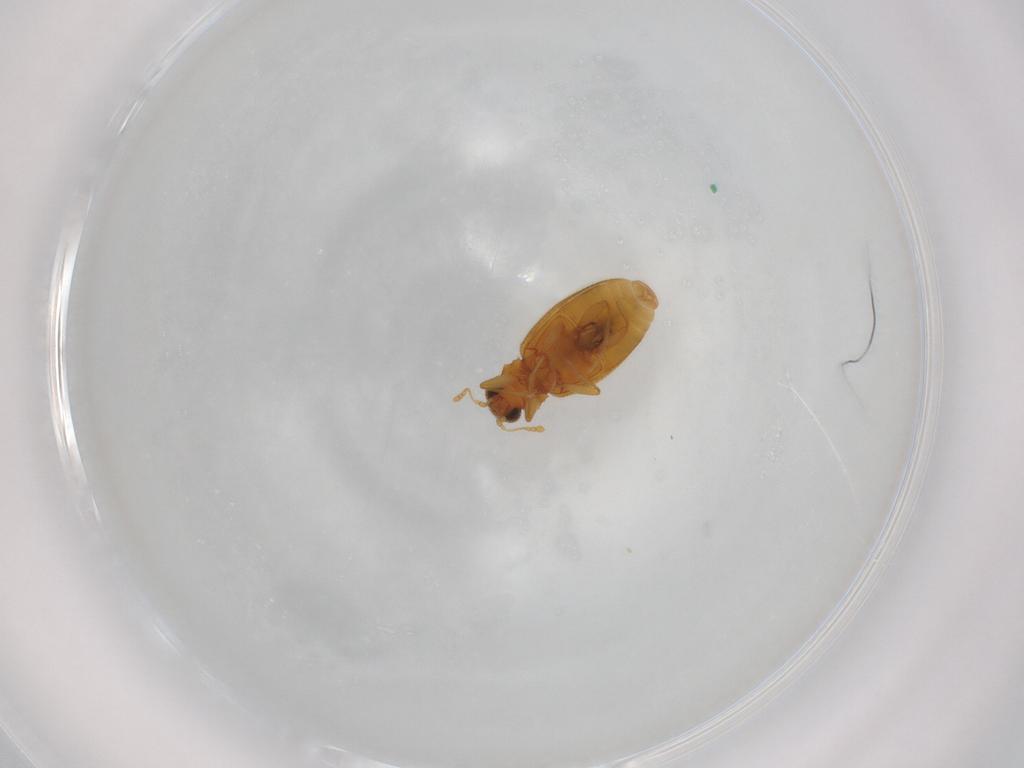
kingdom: Animalia
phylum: Arthropoda
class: Insecta
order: Coleoptera
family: Latridiidae
